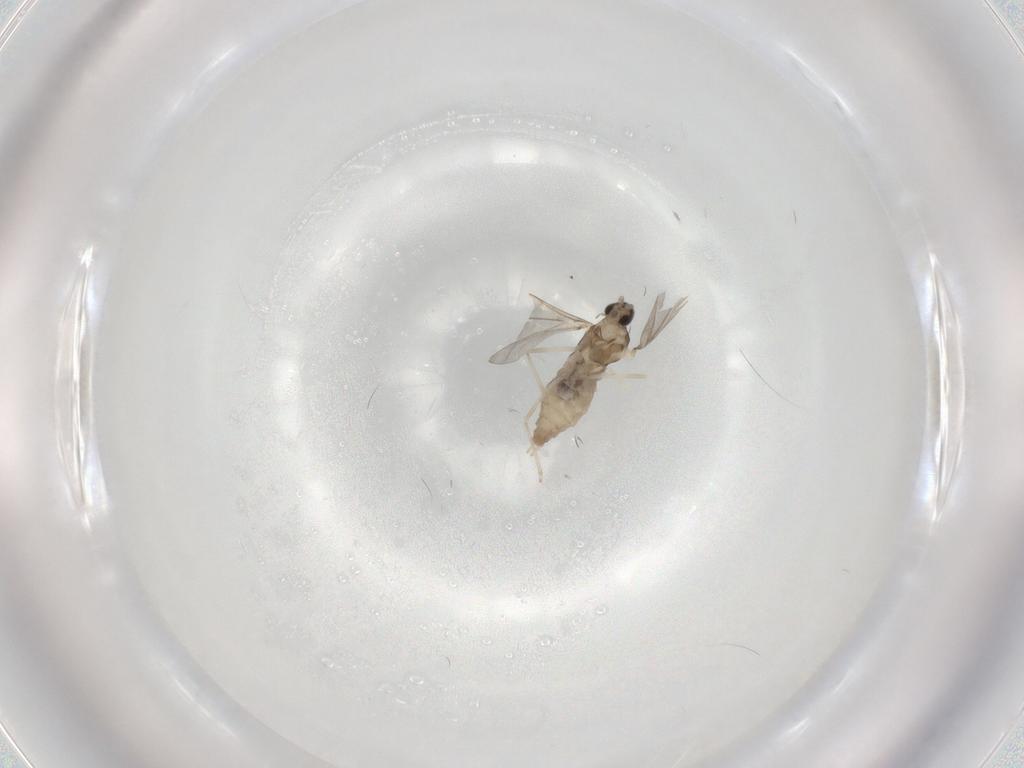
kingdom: Animalia
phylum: Arthropoda
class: Insecta
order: Diptera
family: Cecidomyiidae
